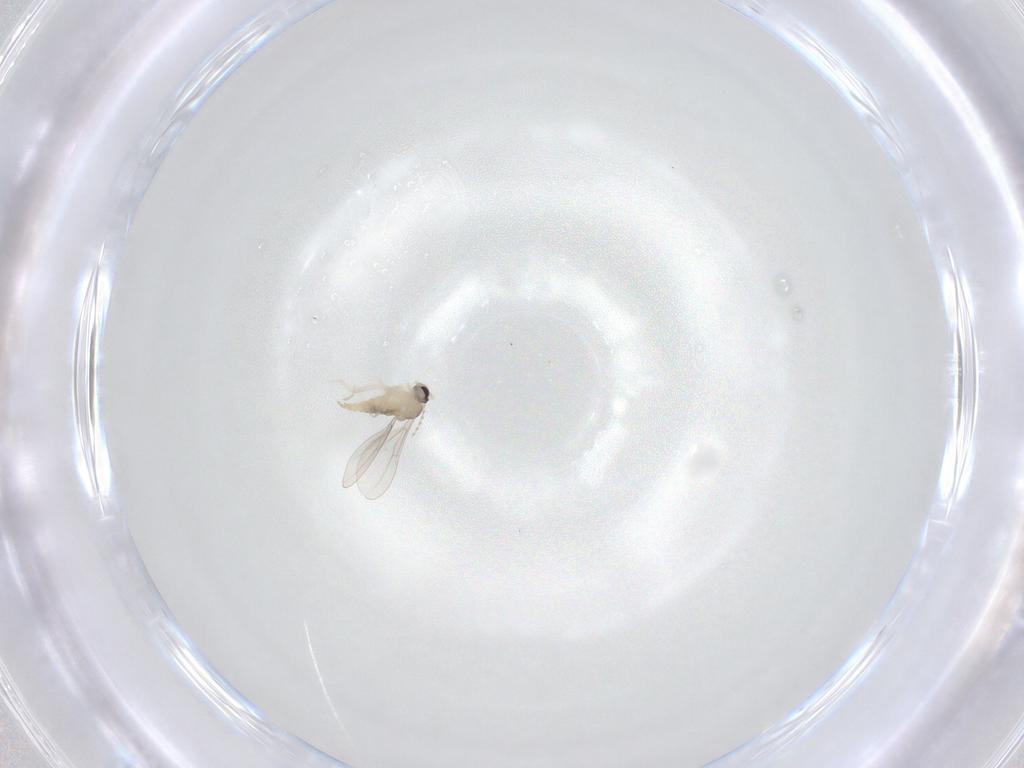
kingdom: Animalia
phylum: Arthropoda
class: Insecta
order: Diptera
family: Cecidomyiidae
